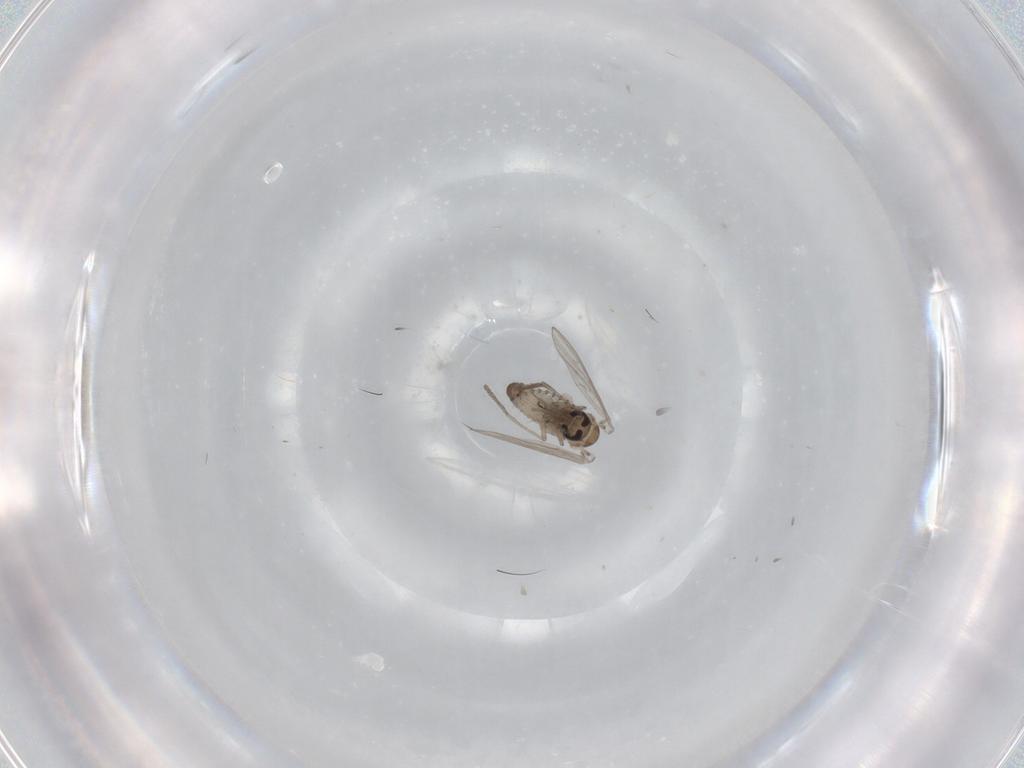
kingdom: Animalia
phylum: Arthropoda
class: Insecta
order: Diptera
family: Psychodidae
